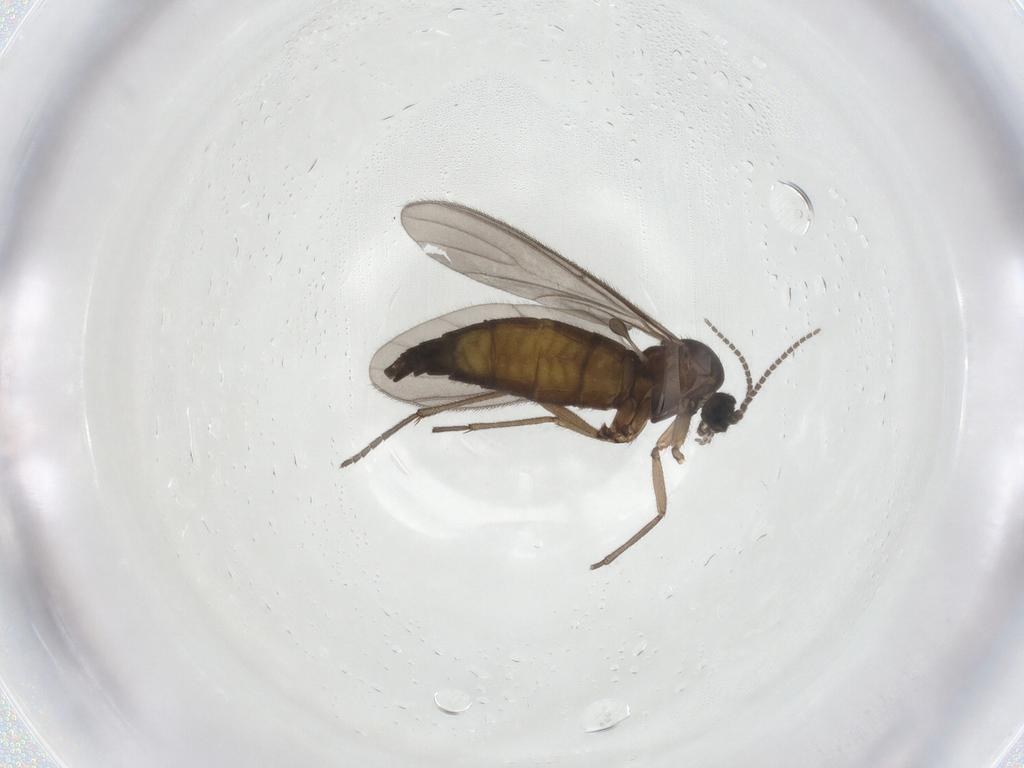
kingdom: Animalia
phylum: Arthropoda
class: Insecta
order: Diptera
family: Sciaridae
